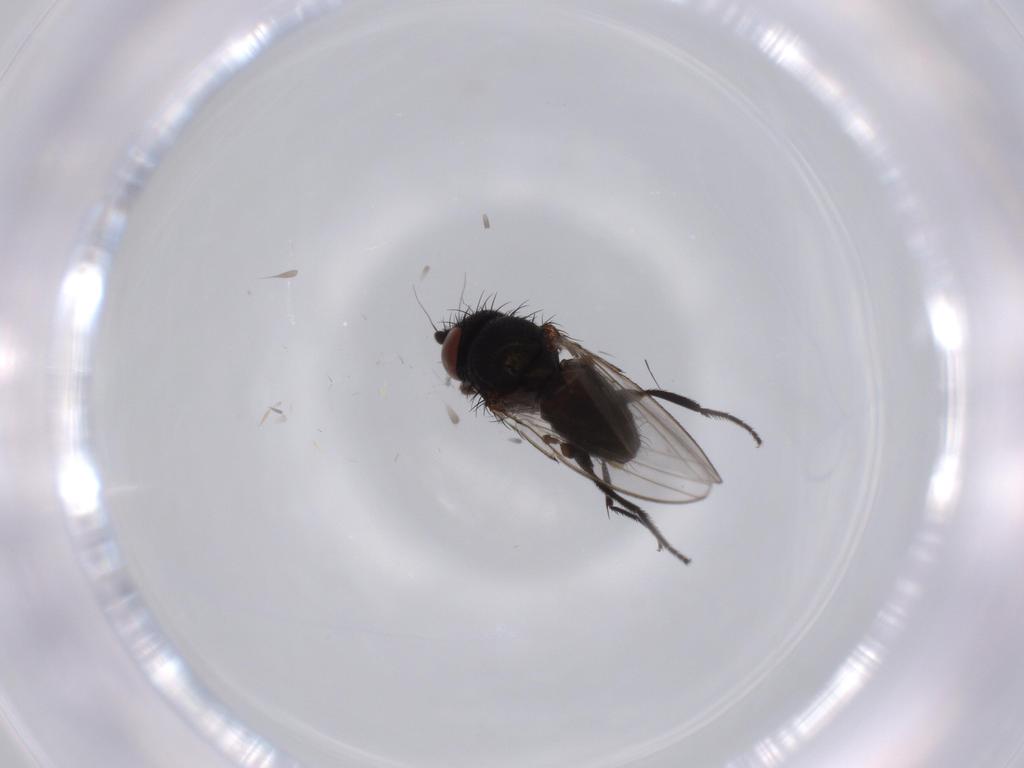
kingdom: Animalia
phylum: Arthropoda
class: Insecta
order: Diptera
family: Milichiidae
